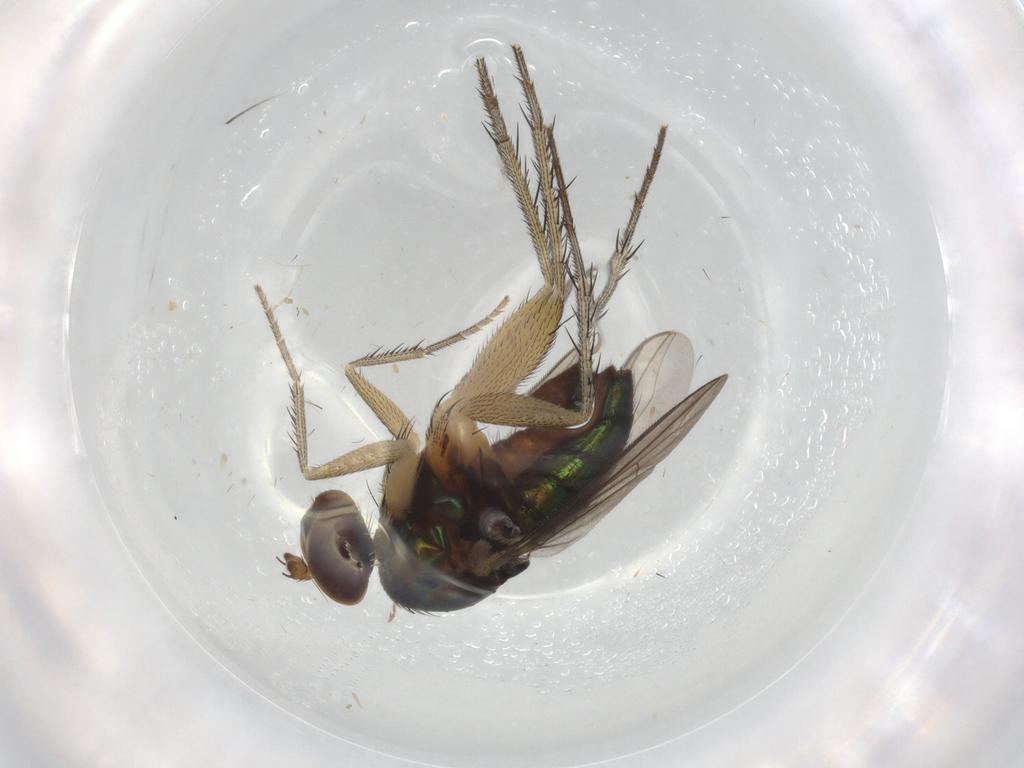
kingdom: Animalia
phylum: Arthropoda
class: Insecta
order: Diptera
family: Dolichopodidae
